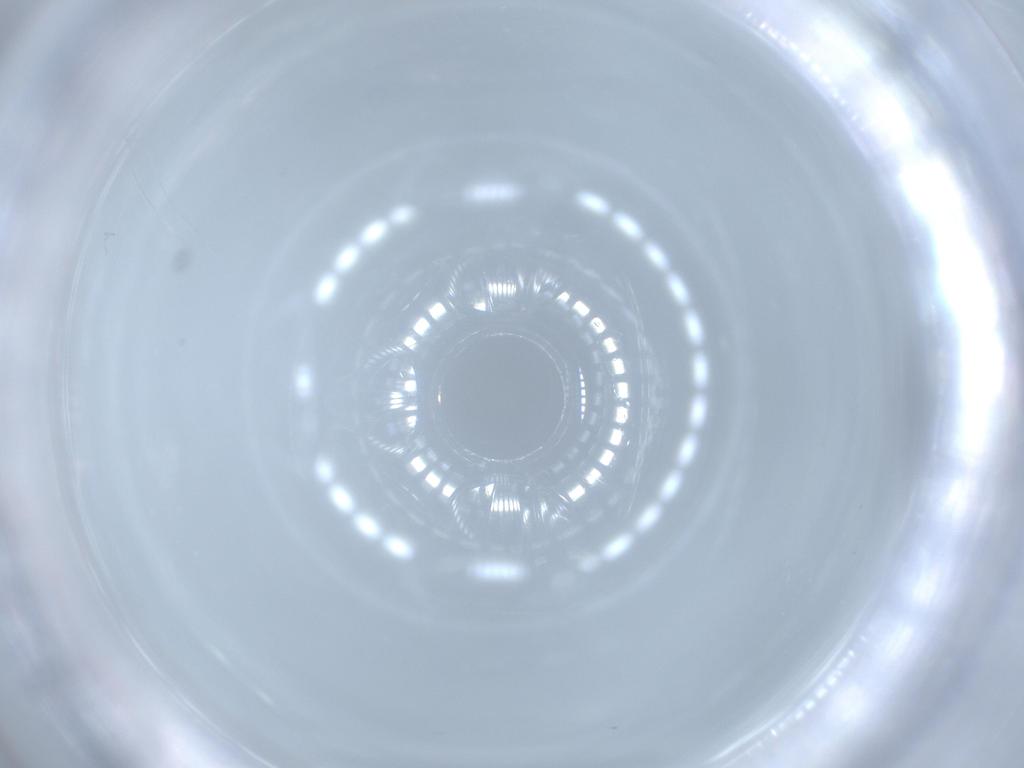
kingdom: Animalia
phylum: Arthropoda
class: Insecta
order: Psocodea
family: Lepidopsocidae
